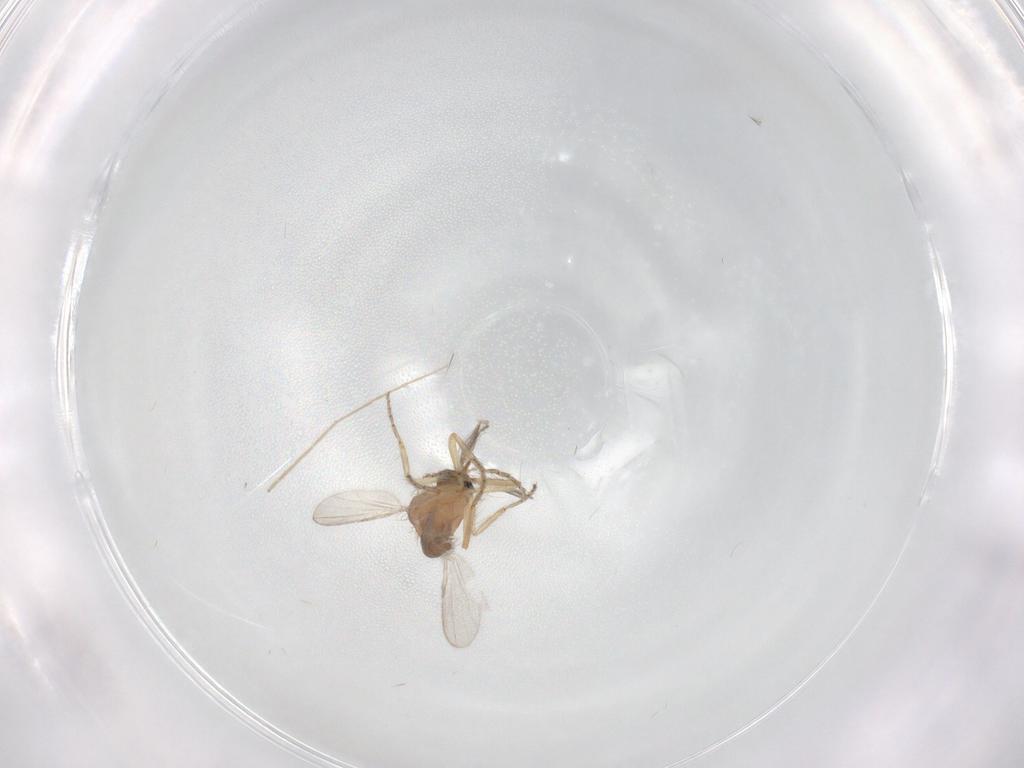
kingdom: Animalia
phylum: Arthropoda
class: Insecta
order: Diptera
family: Ceratopogonidae
